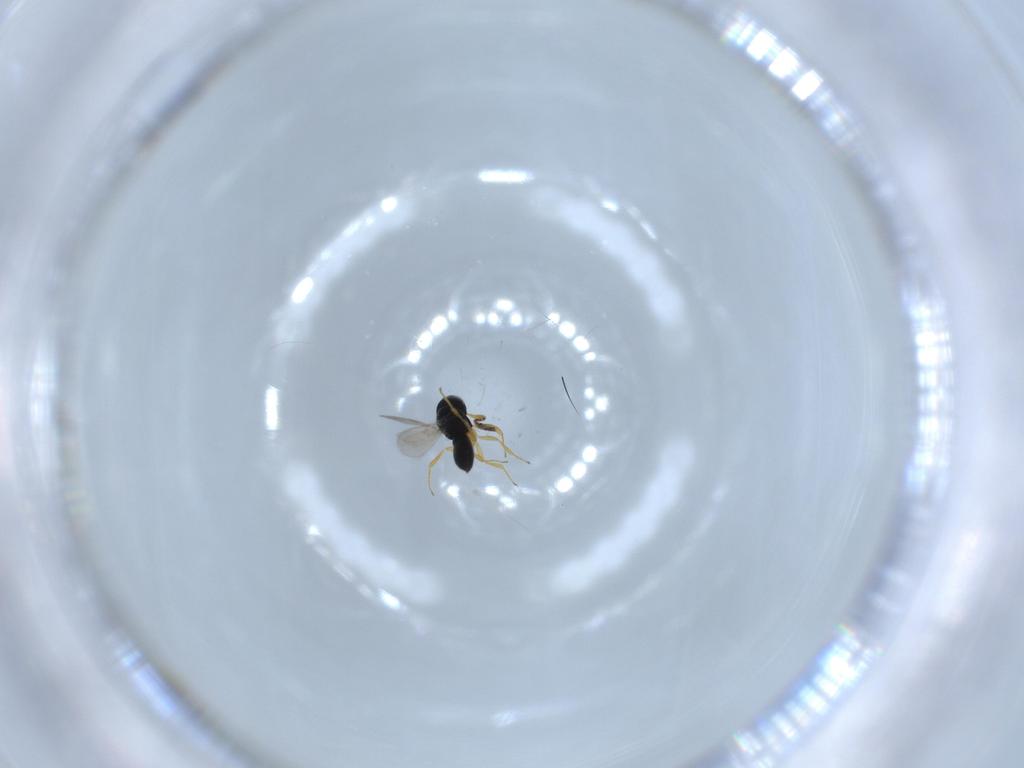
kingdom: Animalia
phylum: Arthropoda
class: Insecta
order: Hymenoptera
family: Scelionidae
